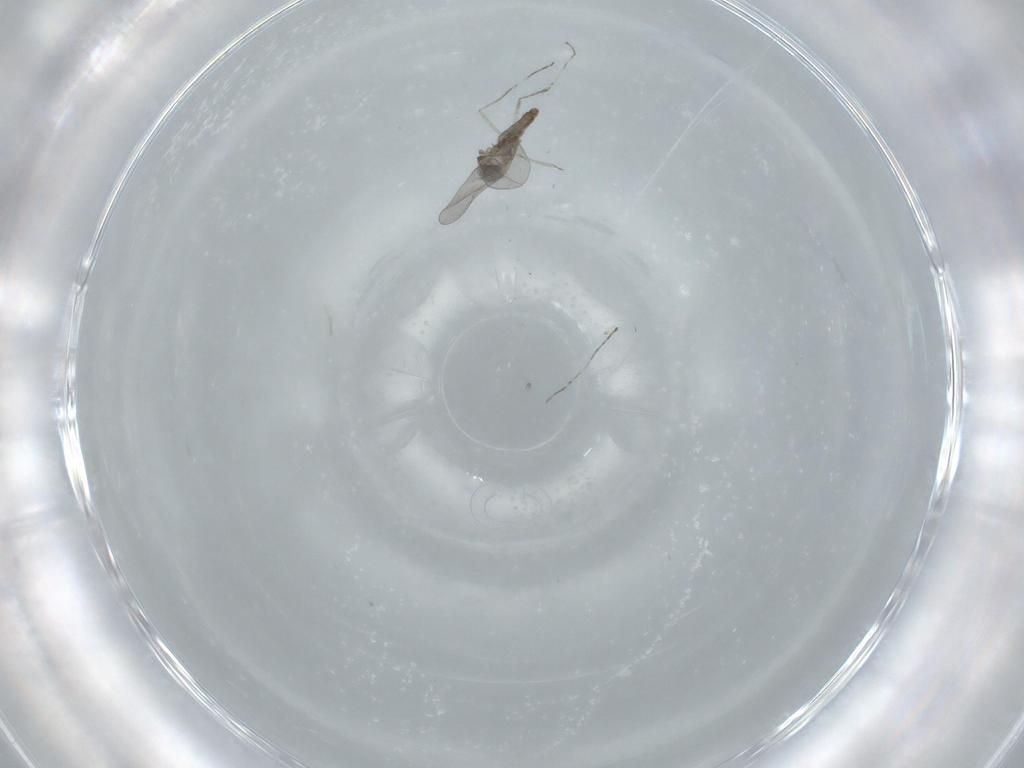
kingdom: Animalia
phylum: Arthropoda
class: Insecta
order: Diptera
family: Cecidomyiidae
